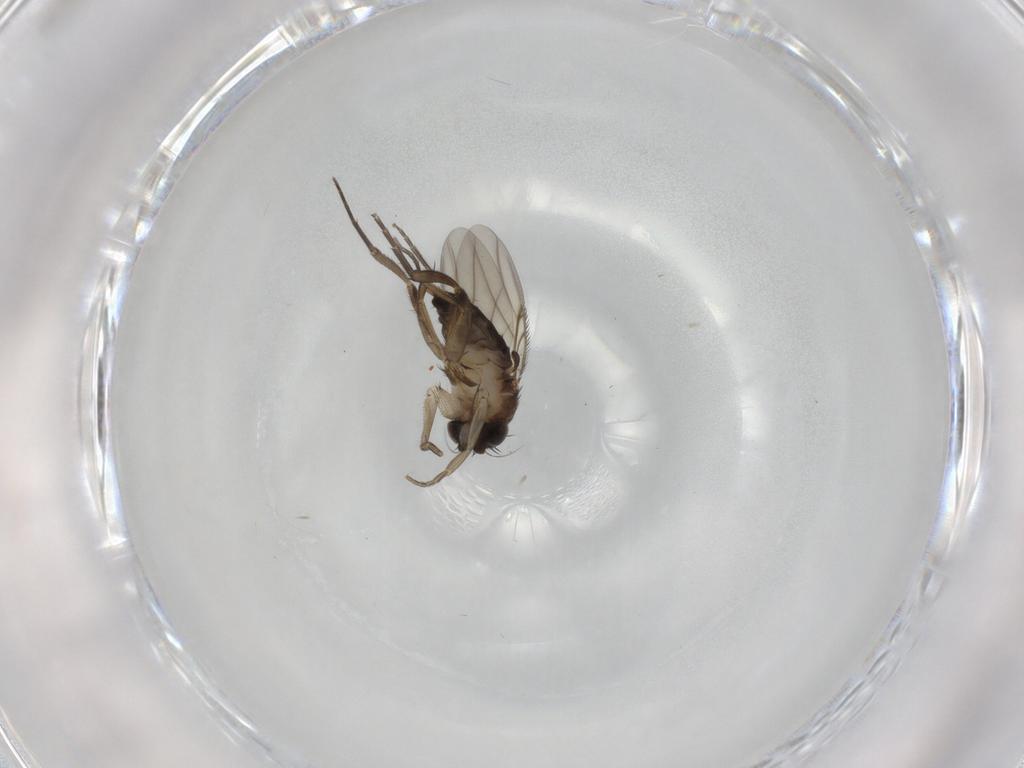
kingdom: Animalia
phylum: Arthropoda
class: Insecta
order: Diptera
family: Phoridae
